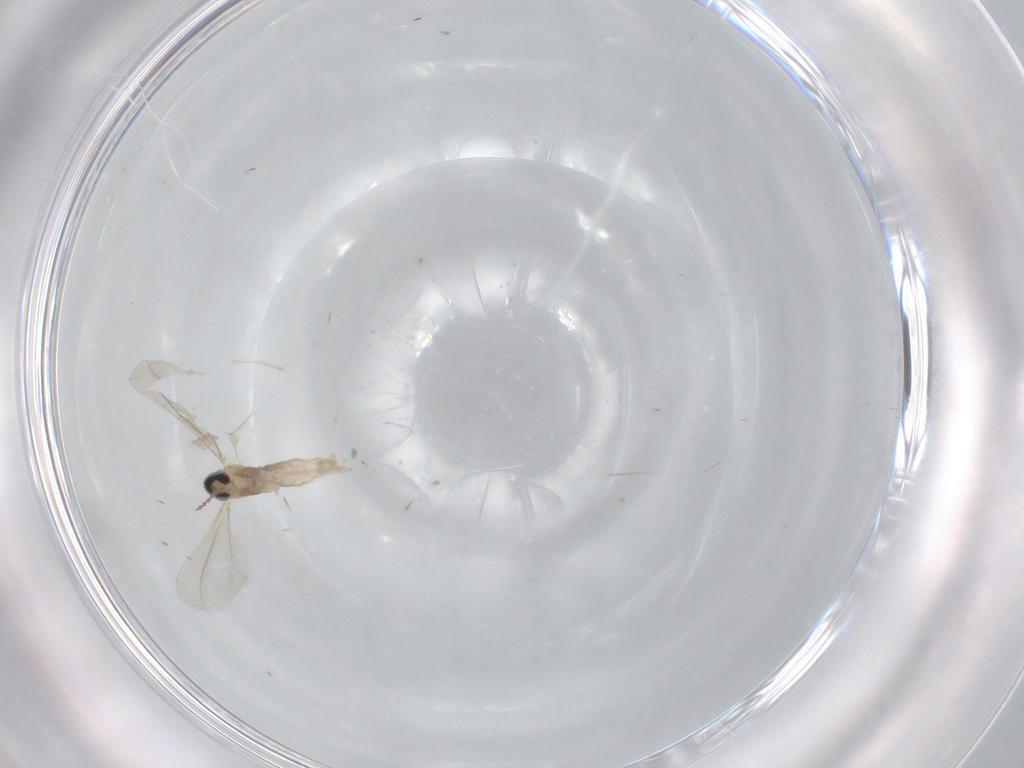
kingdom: Animalia
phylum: Arthropoda
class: Insecta
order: Diptera
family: Cecidomyiidae
